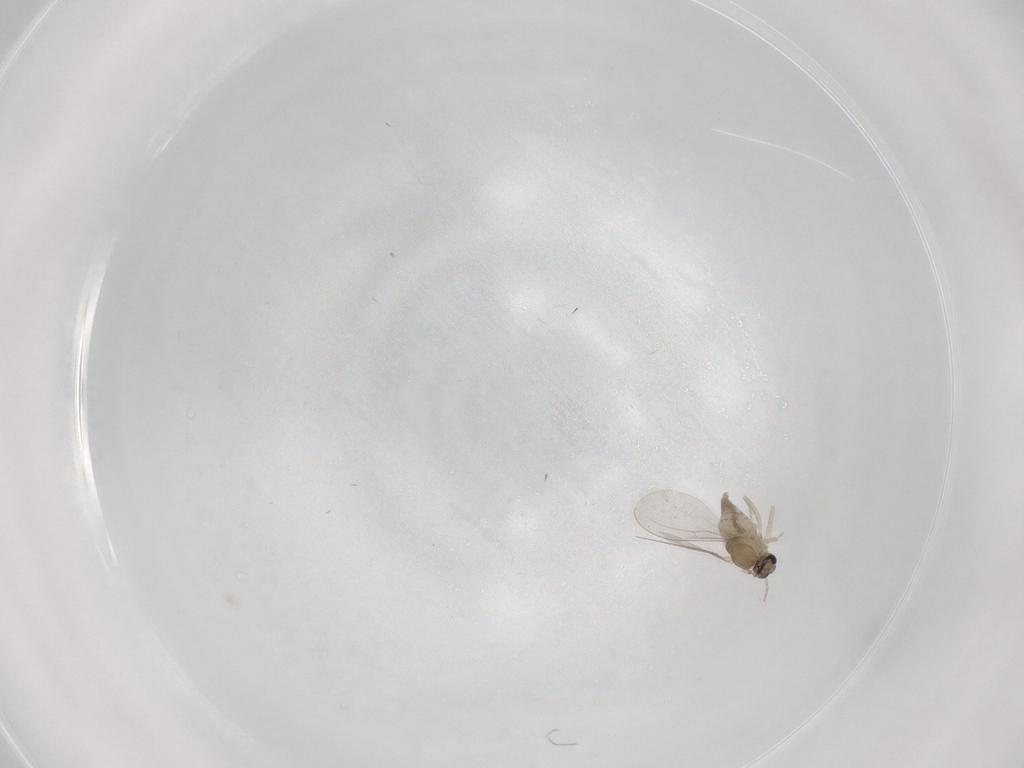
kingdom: Animalia
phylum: Arthropoda
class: Insecta
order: Diptera
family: Cecidomyiidae
